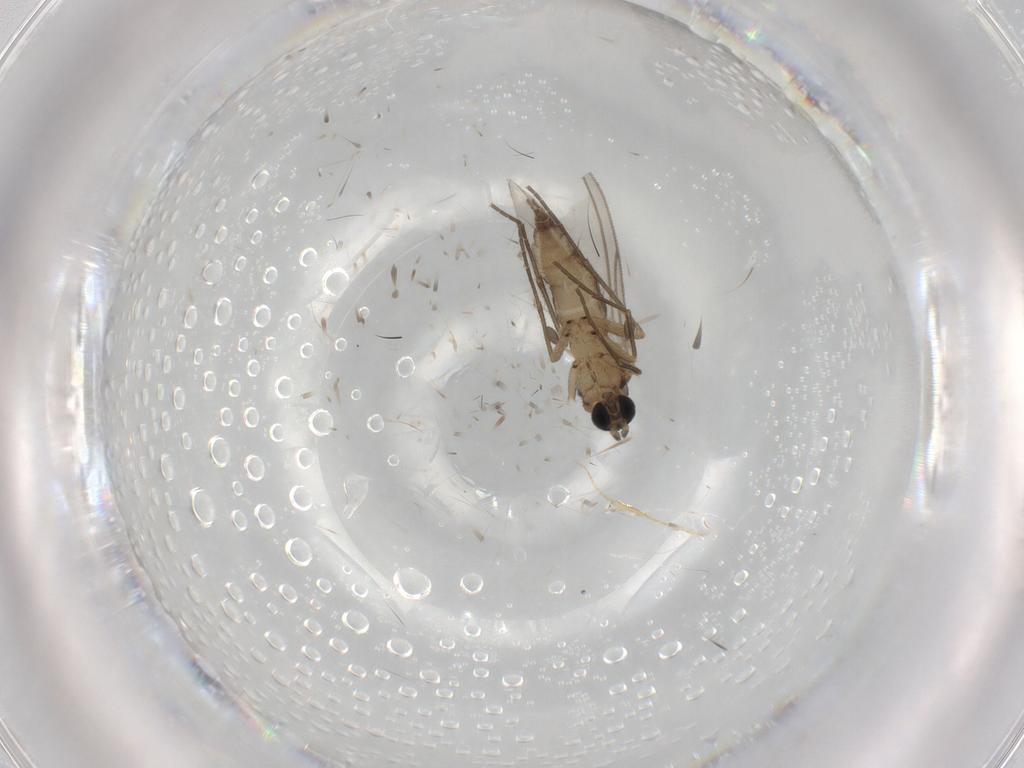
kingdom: Animalia
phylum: Arthropoda
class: Insecta
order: Diptera
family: Sciaridae
